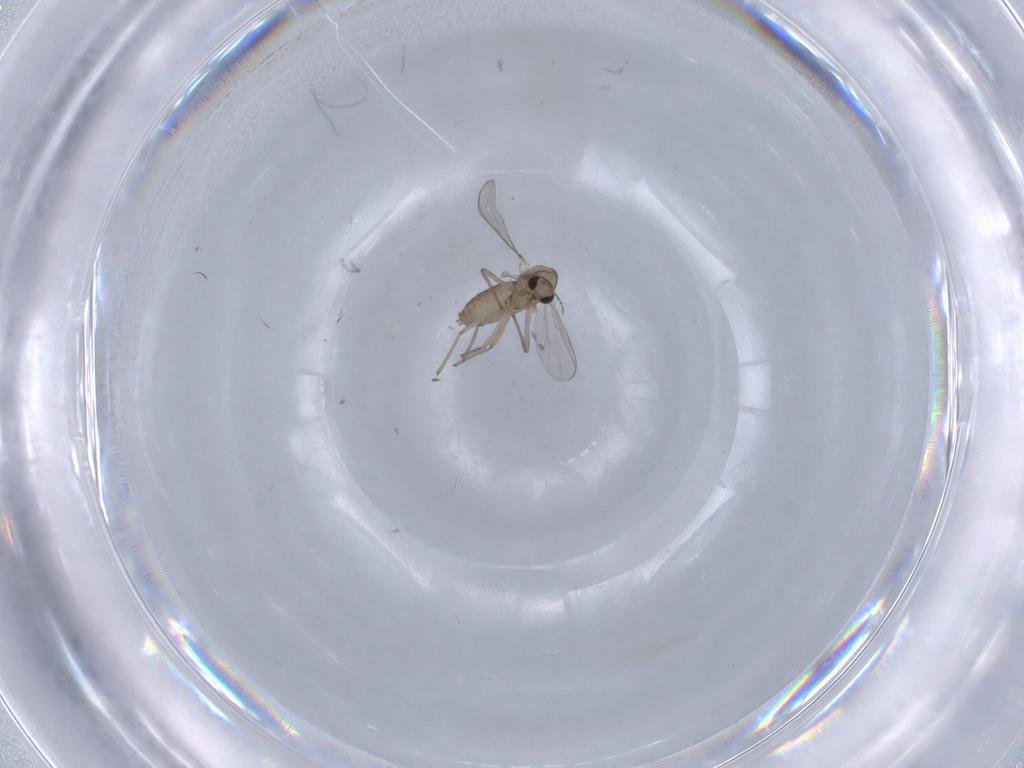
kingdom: Animalia
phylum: Arthropoda
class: Insecta
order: Diptera
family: Chironomidae
